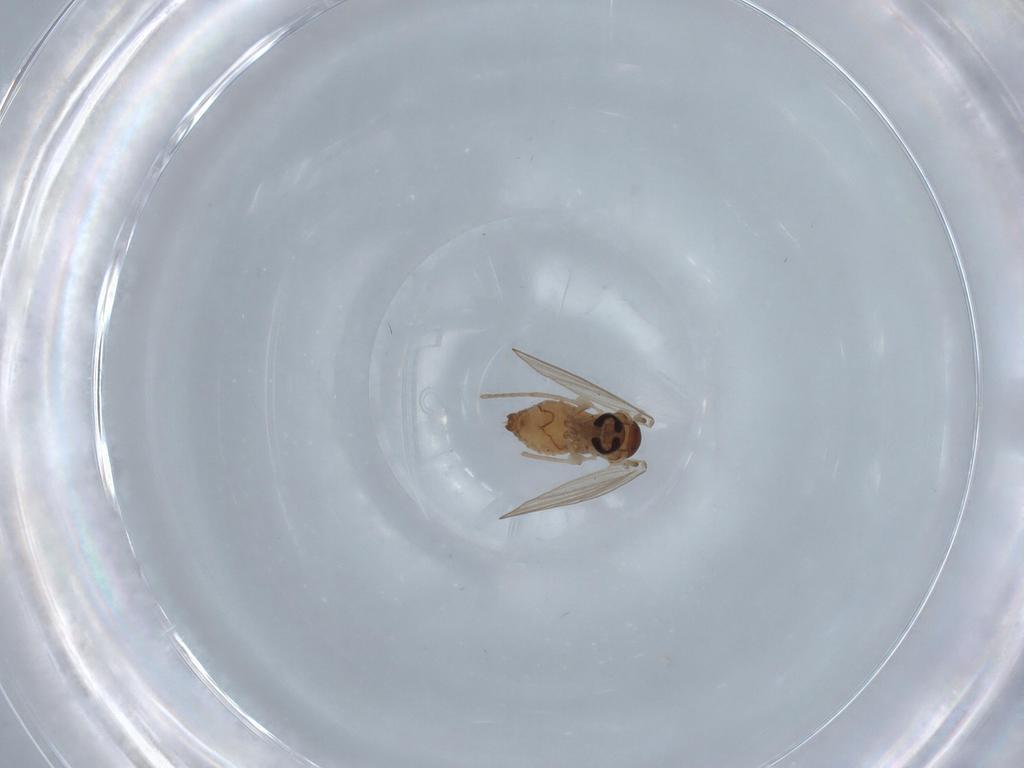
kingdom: Animalia
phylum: Arthropoda
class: Insecta
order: Diptera
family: Psychodidae
